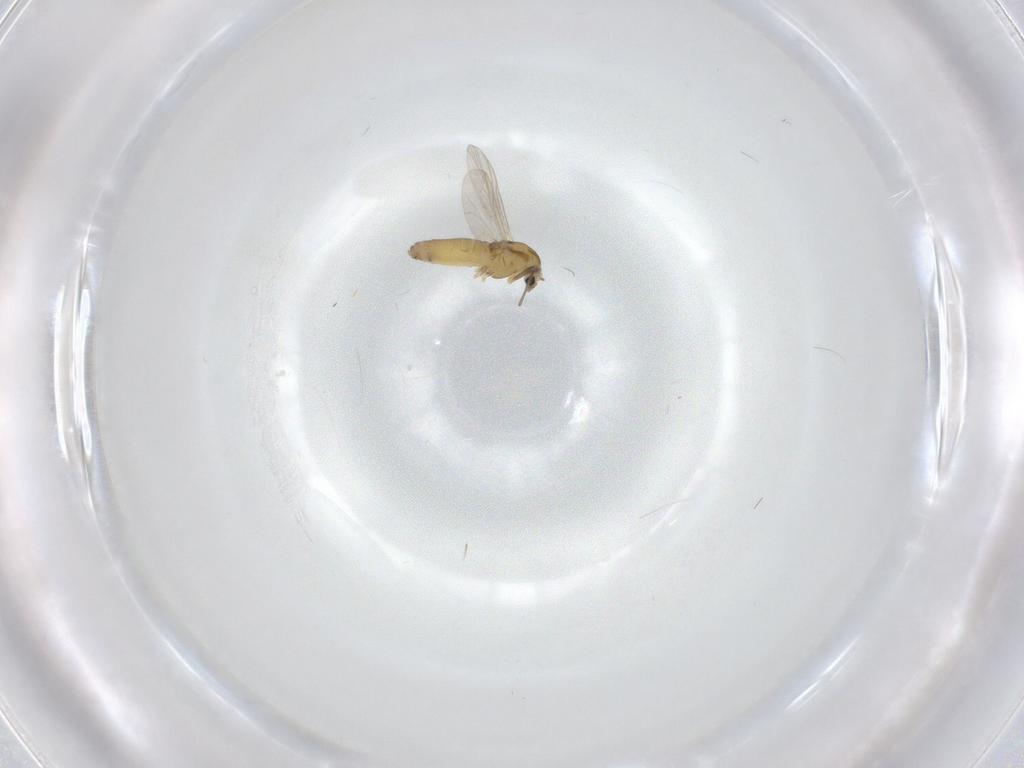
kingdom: Animalia
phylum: Arthropoda
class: Insecta
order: Diptera
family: Chironomidae
